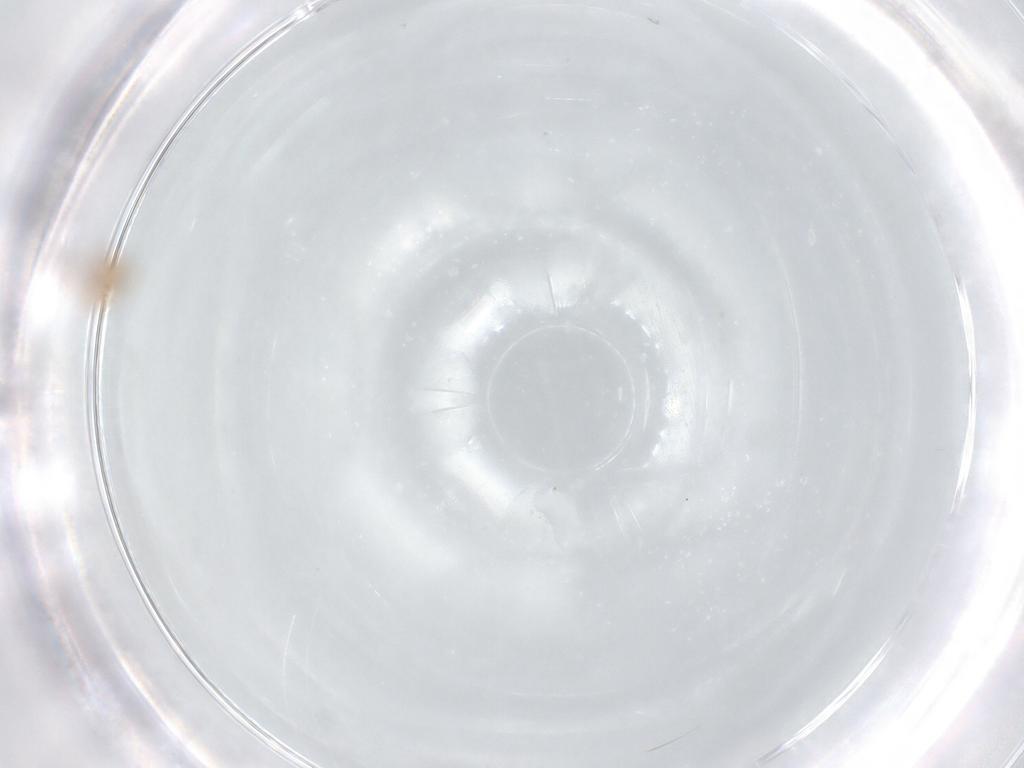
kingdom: Animalia
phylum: Arthropoda
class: Insecta
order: Thysanoptera
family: Thripidae
